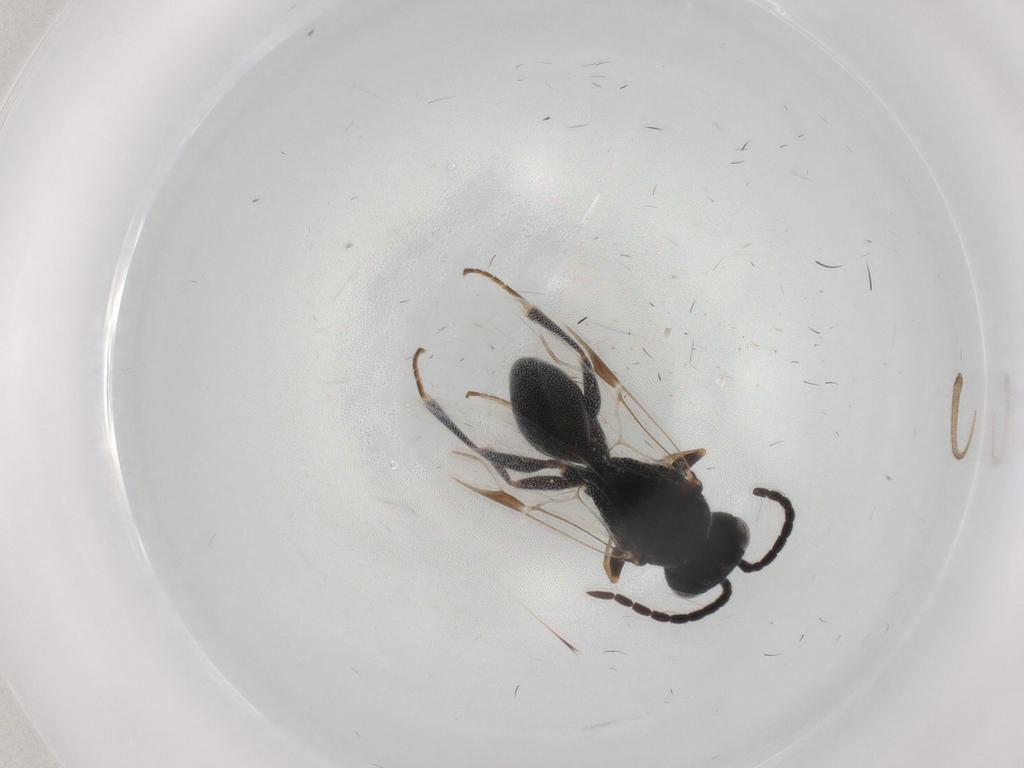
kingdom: Animalia
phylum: Arthropoda
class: Insecta
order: Hymenoptera
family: Dryinidae
